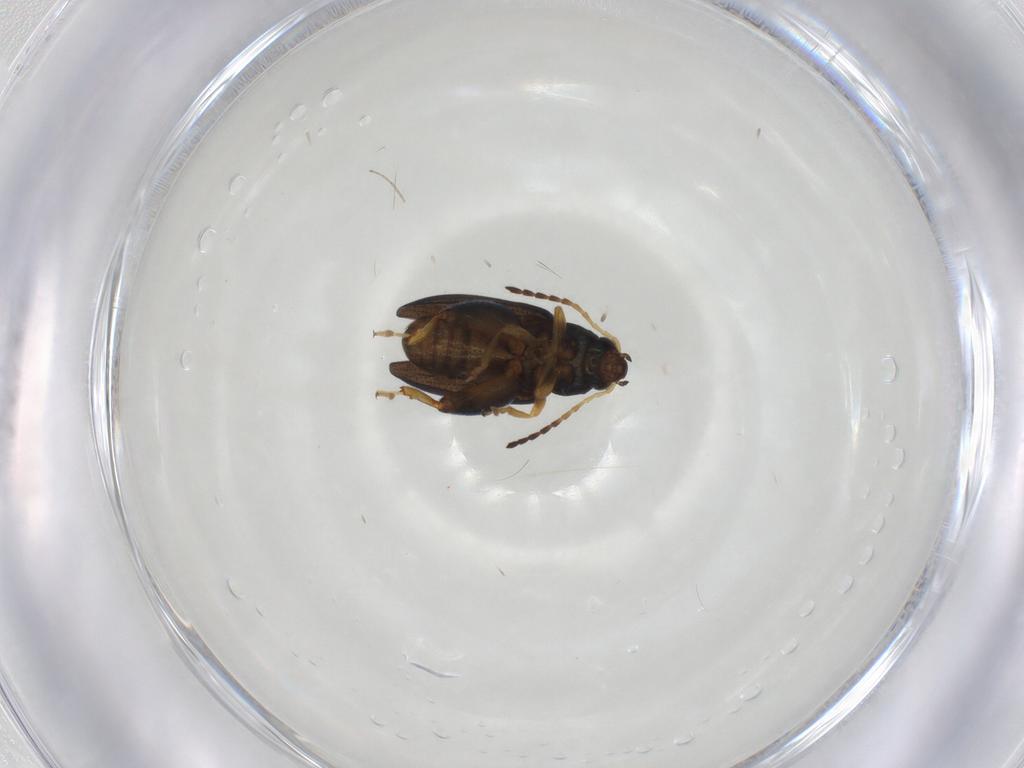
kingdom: Animalia
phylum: Arthropoda
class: Insecta
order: Coleoptera
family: Chrysomelidae
